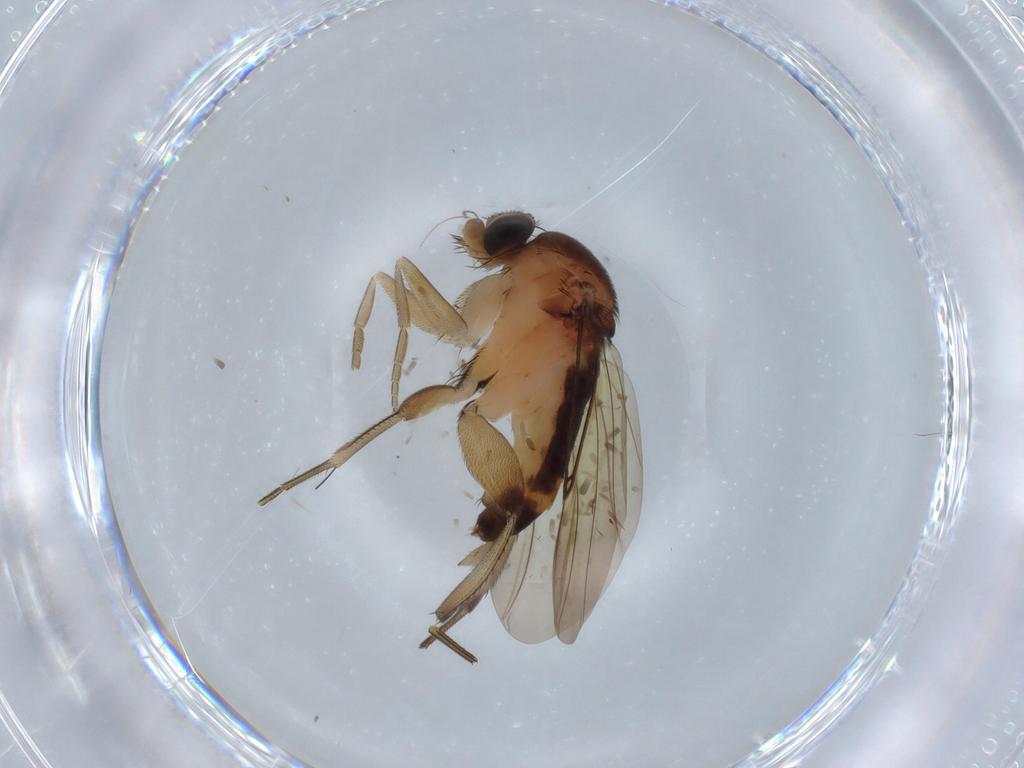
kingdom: Animalia
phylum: Arthropoda
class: Insecta
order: Diptera
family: Phoridae
